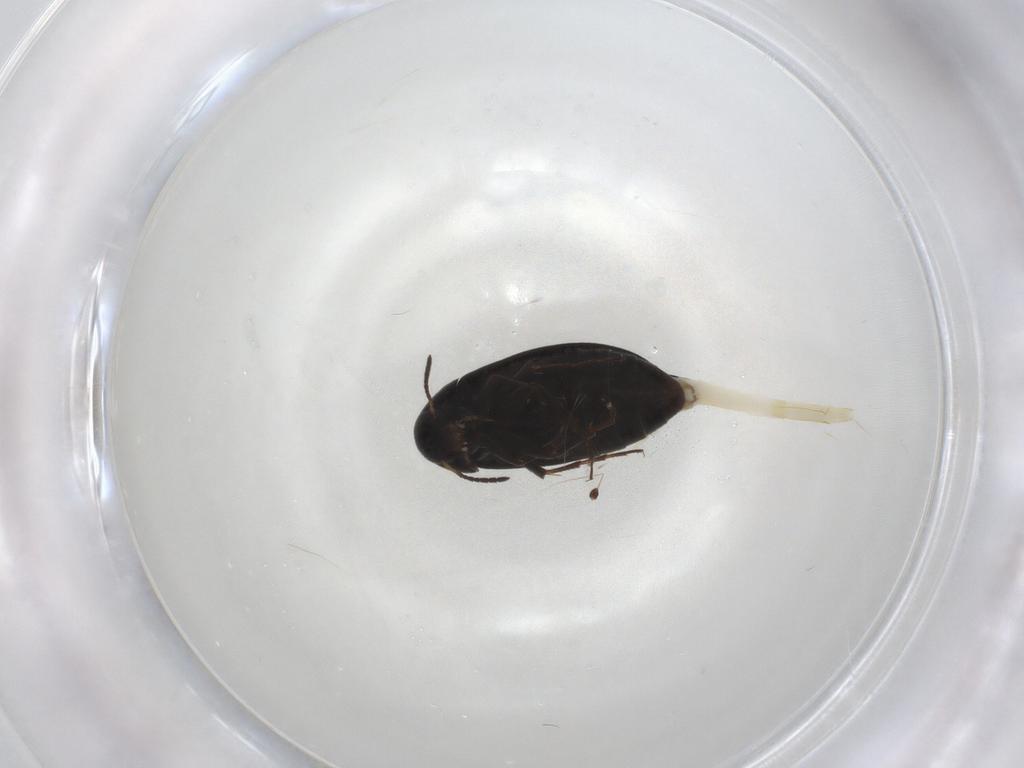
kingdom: Animalia
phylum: Arthropoda
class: Insecta
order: Coleoptera
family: Scraptiidae
